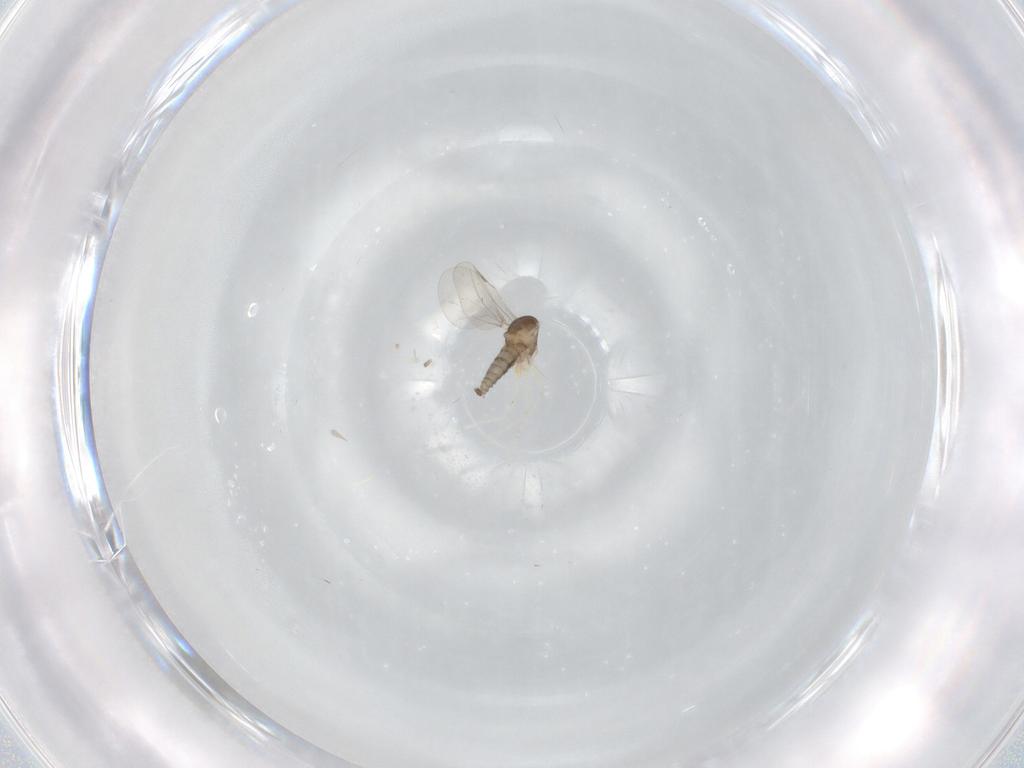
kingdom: Animalia
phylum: Arthropoda
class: Insecta
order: Diptera
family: Cecidomyiidae
